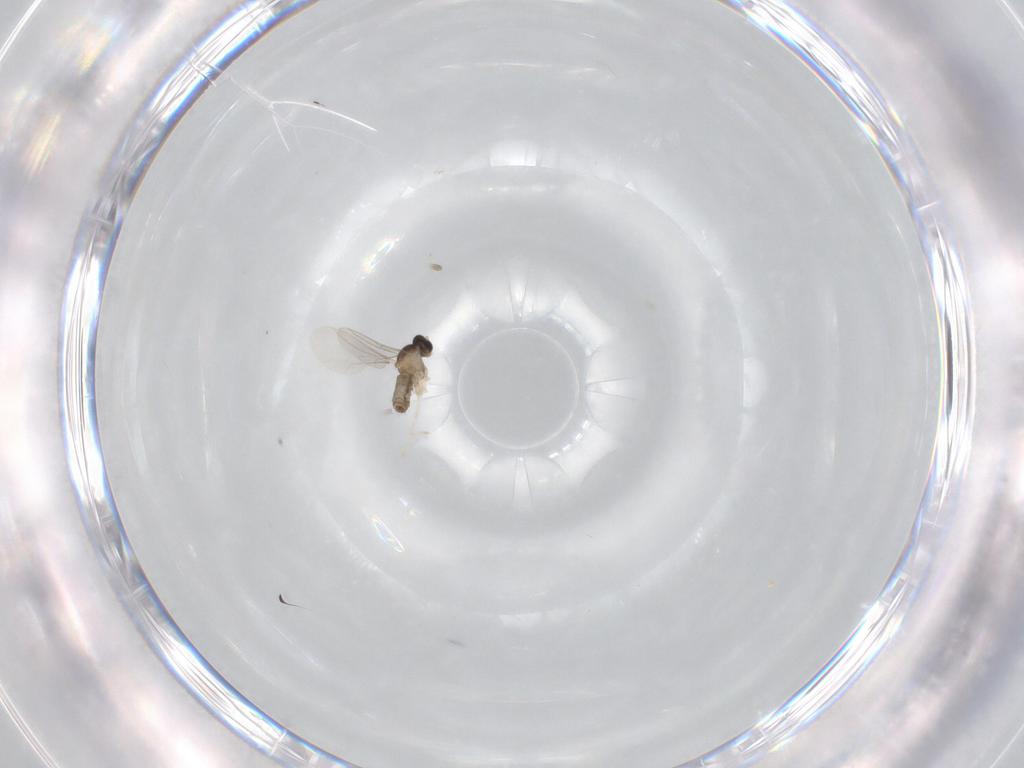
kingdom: Animalia
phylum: Arthropoda
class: Insecta
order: Diptera
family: Cecidomyiidae
